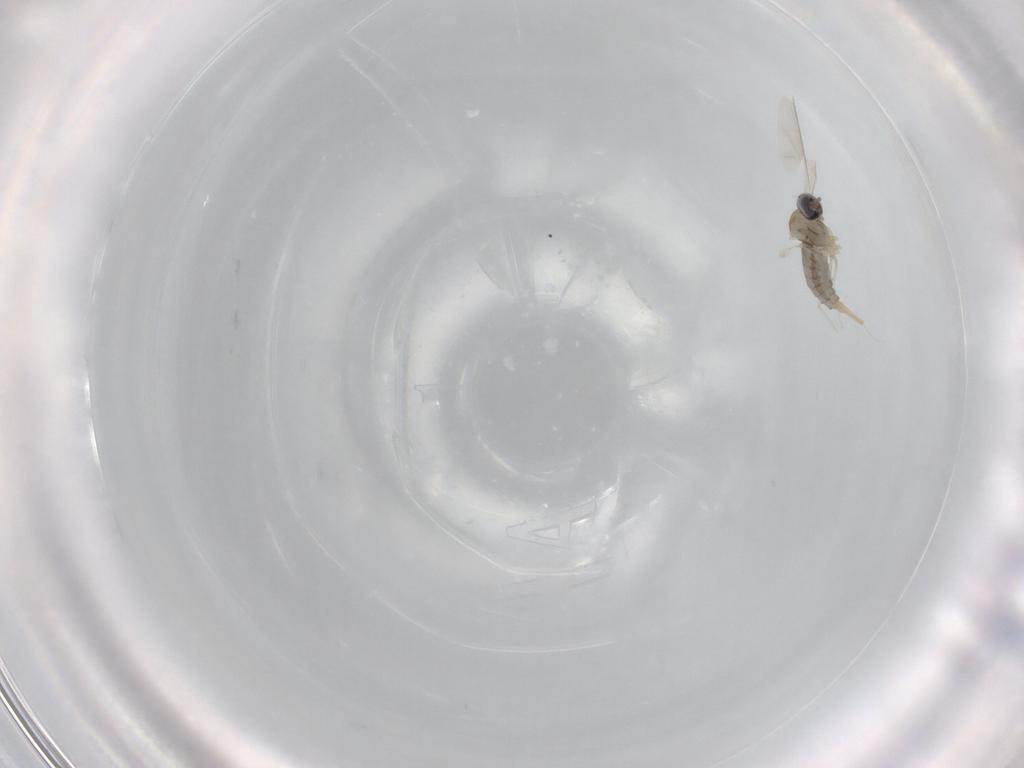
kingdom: Animalia
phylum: Arthropoda
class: Insecta
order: Diptera
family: Cecidomyiidae
